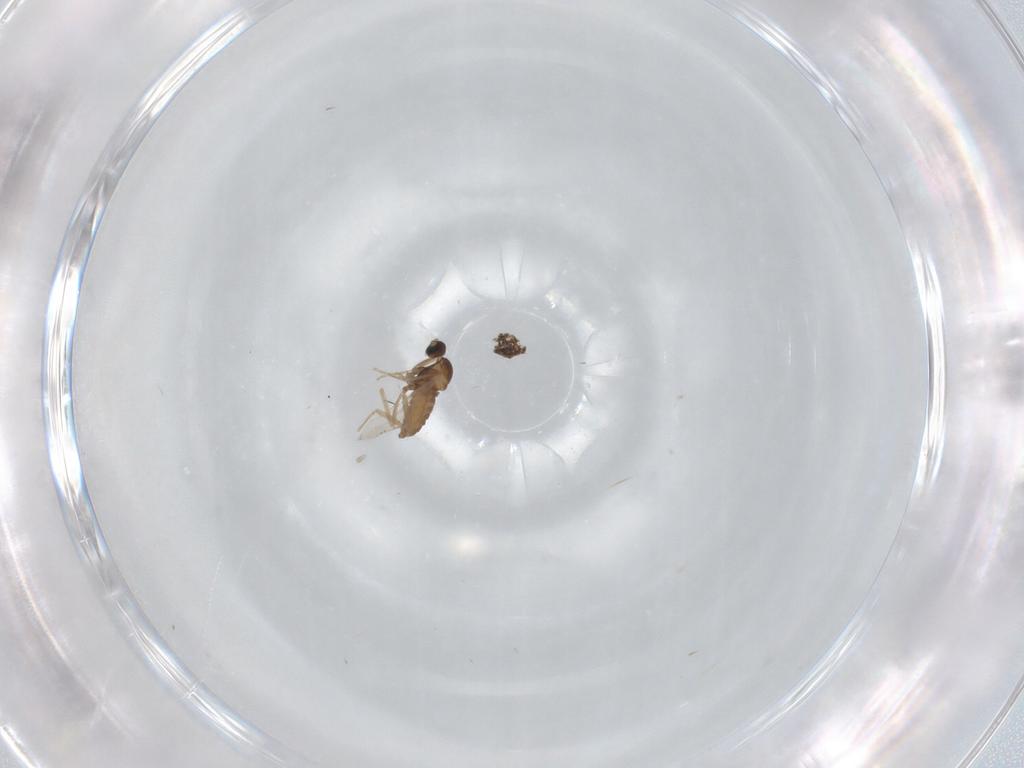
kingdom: Animalia
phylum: Arthropoda
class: Insecta
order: Diptera
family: Cecidomyiidae
